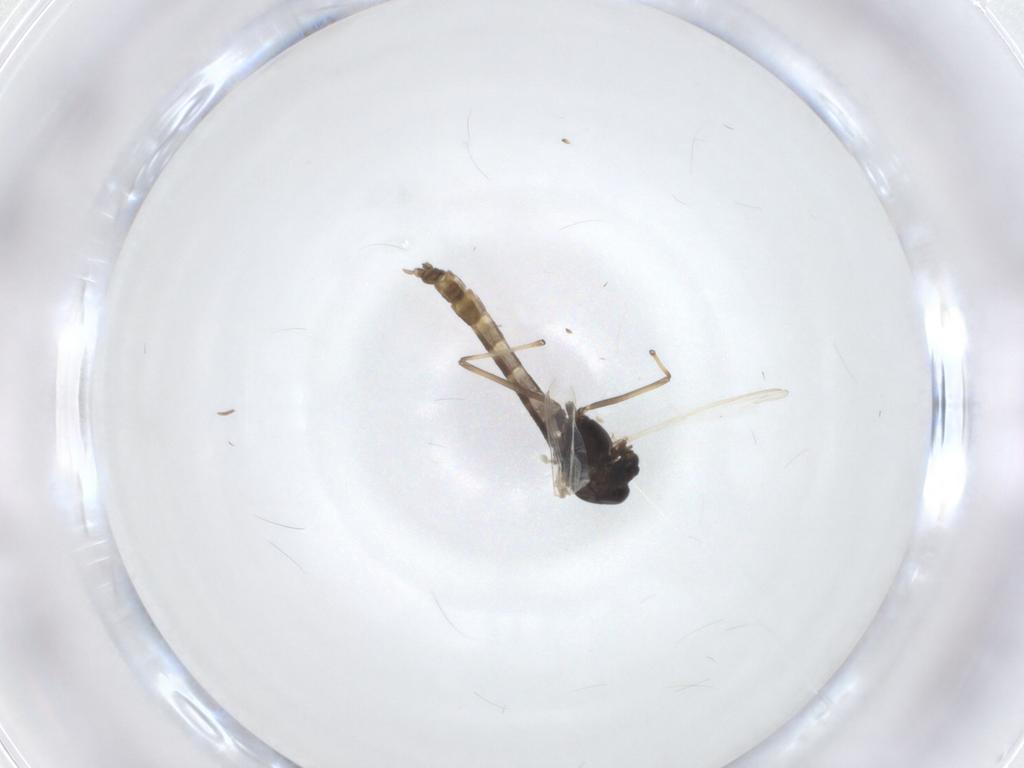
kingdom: Animalia
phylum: Arthropoda
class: Insecta
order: Diptera
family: Chironomidae
